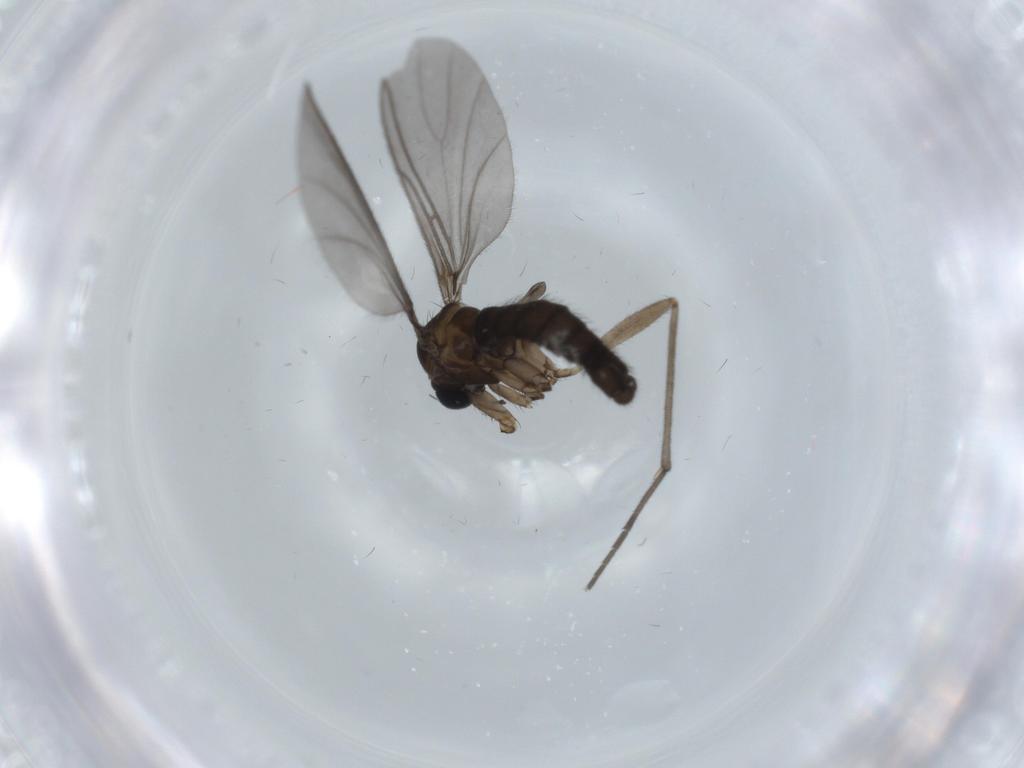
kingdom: Animalia
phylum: Arthropoda
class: Insecta
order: Diptera
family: Sciaridae
